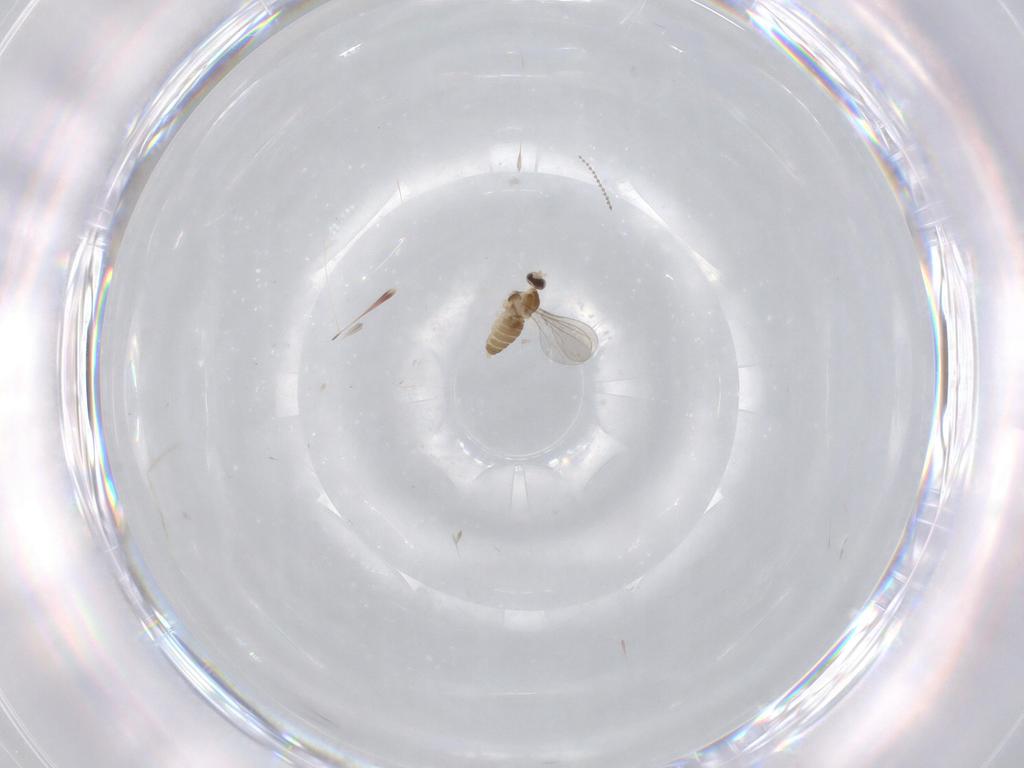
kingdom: Animalia
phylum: Arthropoda
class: Insecta
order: Diptera
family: Cecidomyiidae
